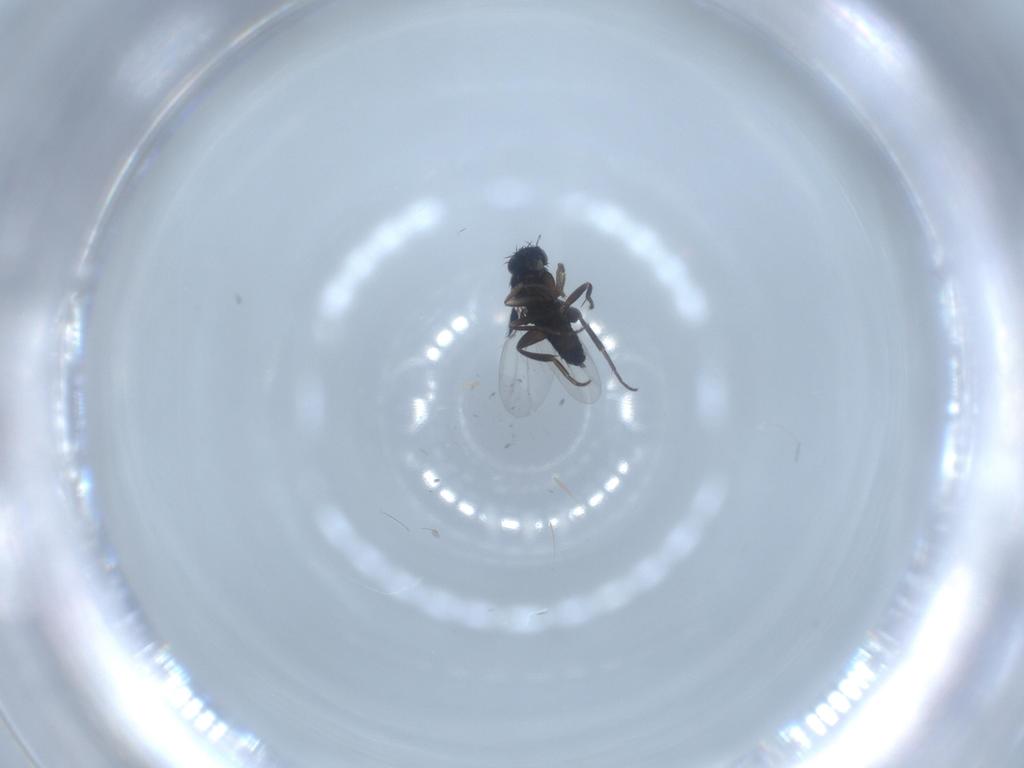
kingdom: Animalia
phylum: Arthropoda
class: Insecta
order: Diptera
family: Phoridae
